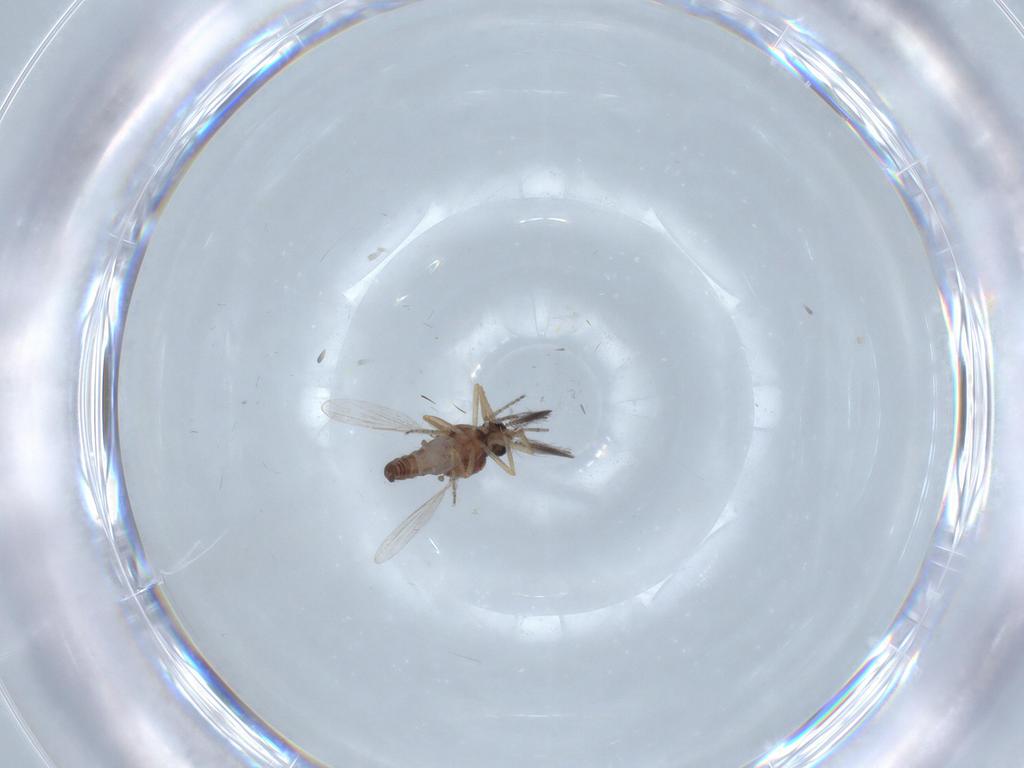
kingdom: Animalia
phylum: Arthropoda
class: Insecta
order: Diptera
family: Ceratopogonidae
